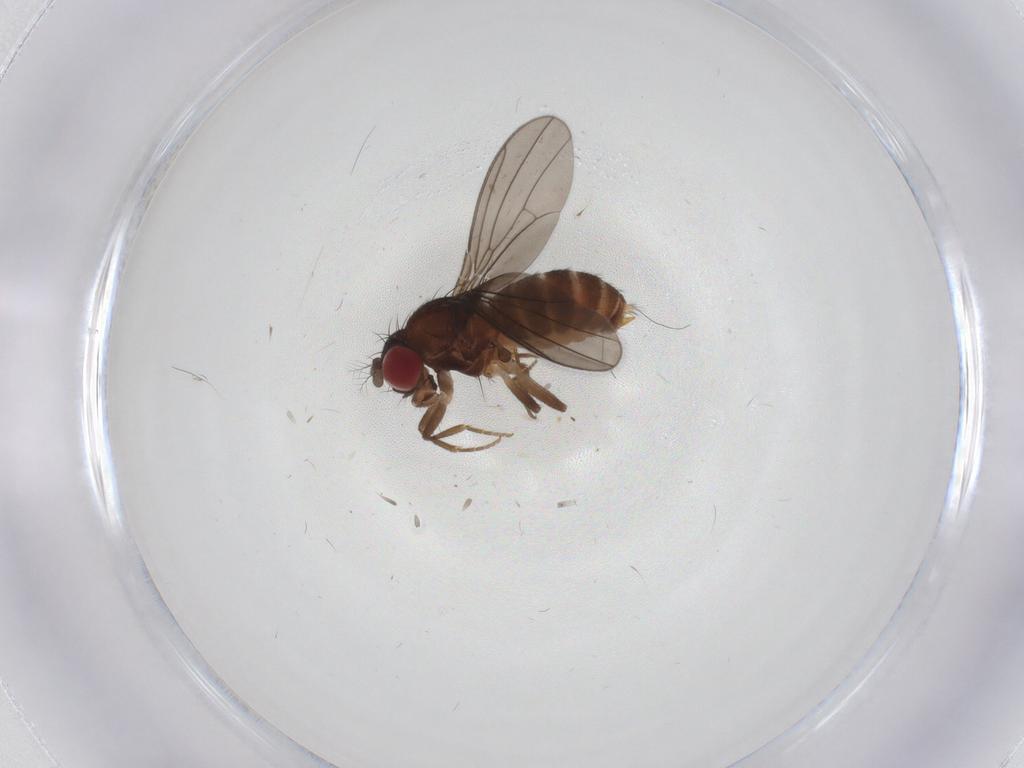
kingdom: Animalia
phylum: Arthropoda
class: Insecta
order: Diptera
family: Drosophilidae
